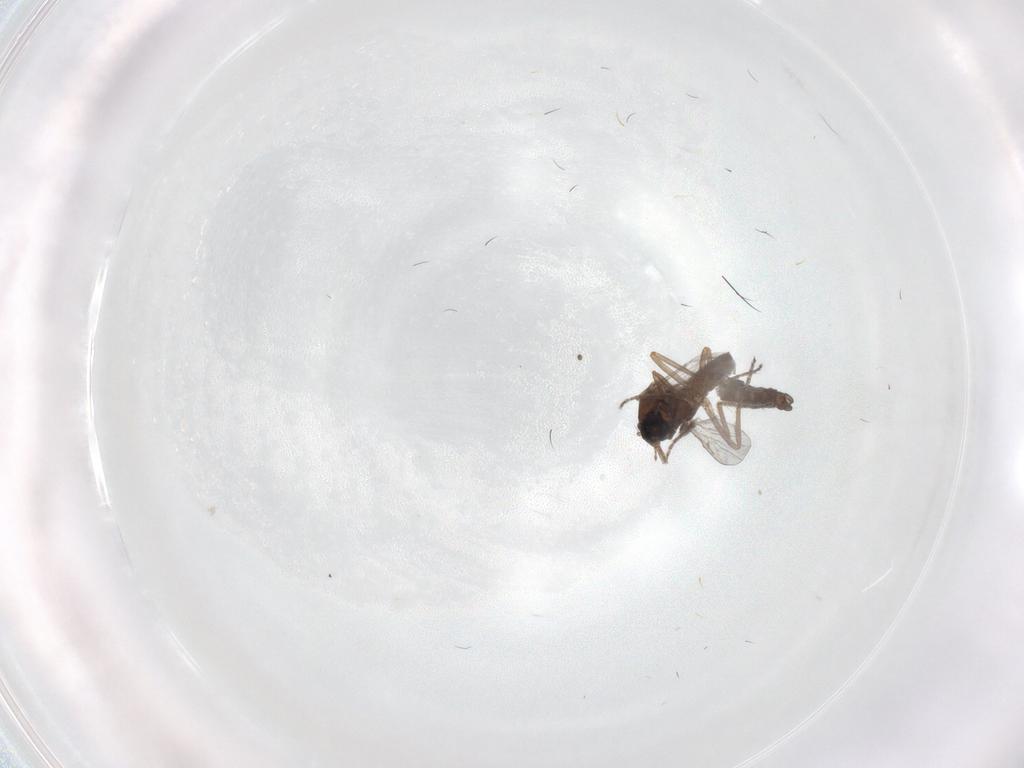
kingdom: Animalia
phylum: Arthropoda
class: Insecta
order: Diptera
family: Ceratopogonidae
